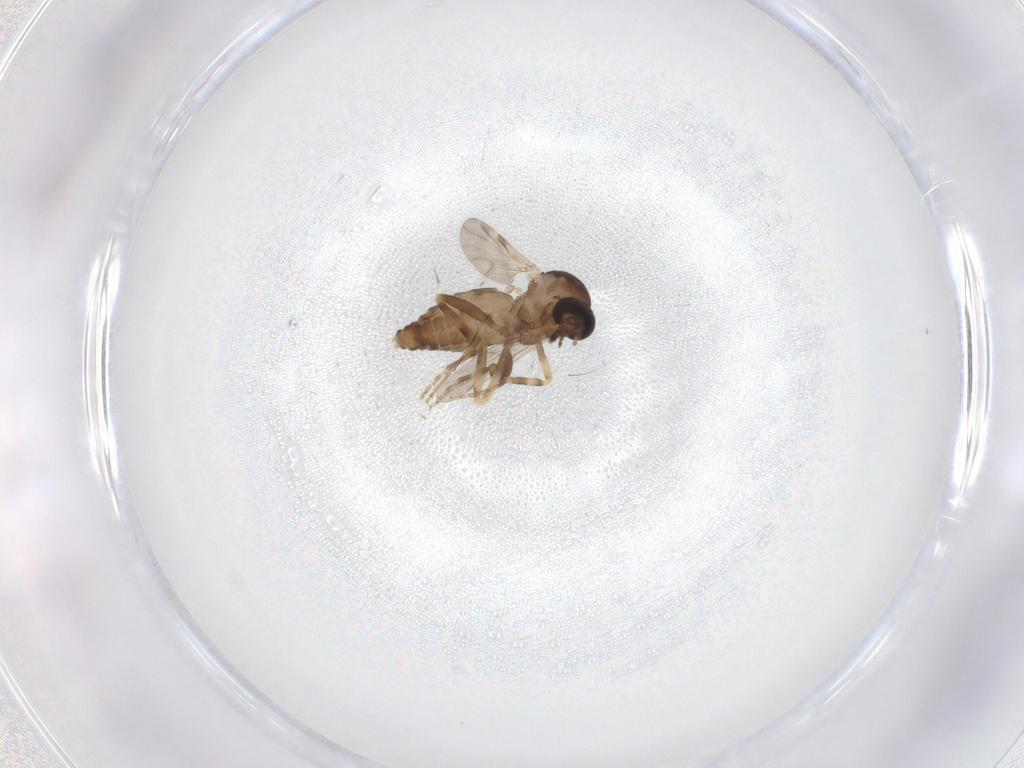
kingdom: Animalia
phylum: Arthropoda
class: Insecta
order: Diptera
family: Ceratopogonidae
